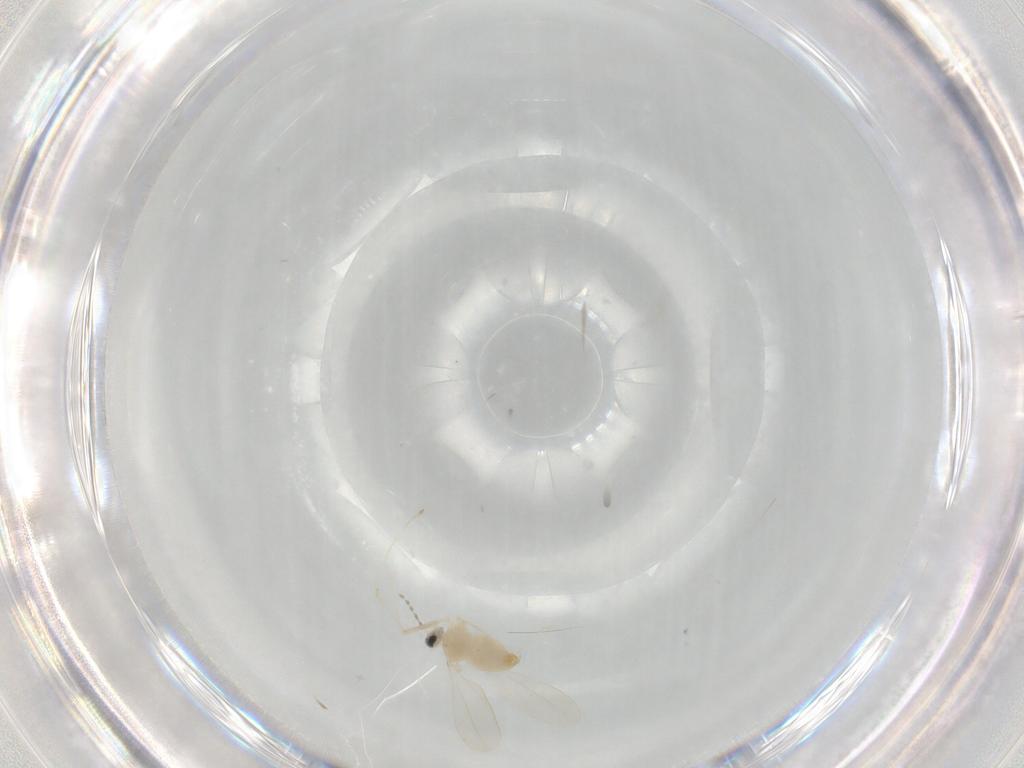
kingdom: Animalia
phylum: Arthropoda
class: Insecta
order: Diptera
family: Cecidomyiidae
